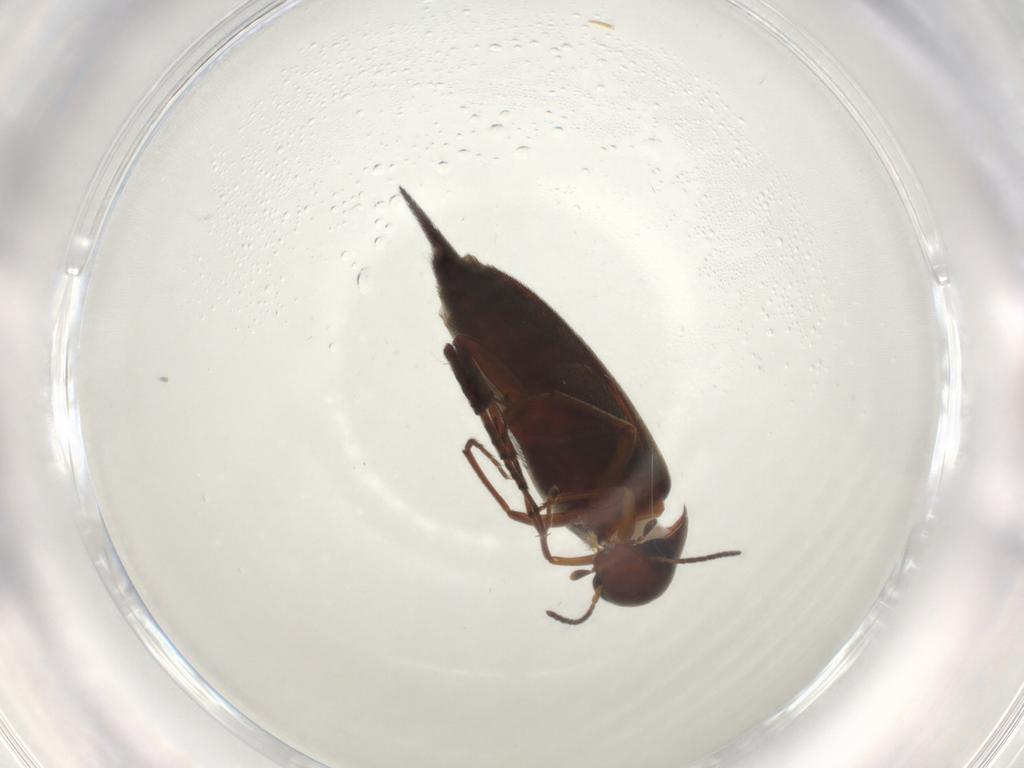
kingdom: Animalia
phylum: Arthropoda
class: Insecta
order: Coleoptera
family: Mordellidae
